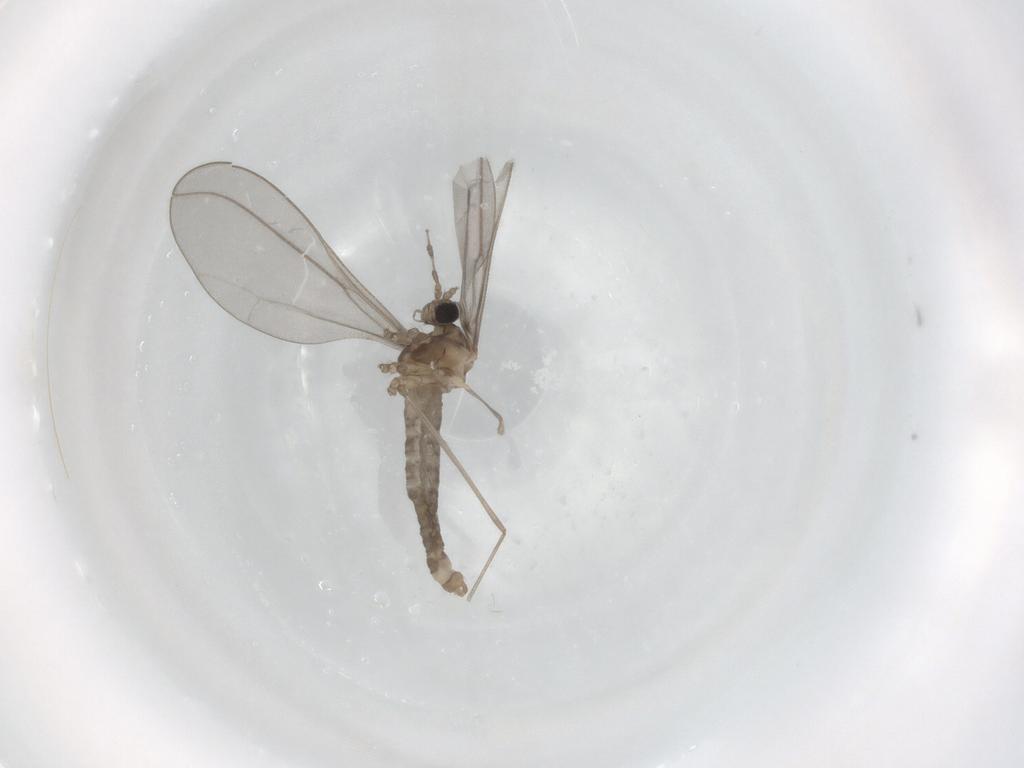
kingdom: Animalia
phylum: Arthropoda
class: Insecta
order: Diptera
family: Cecidomyiidae
